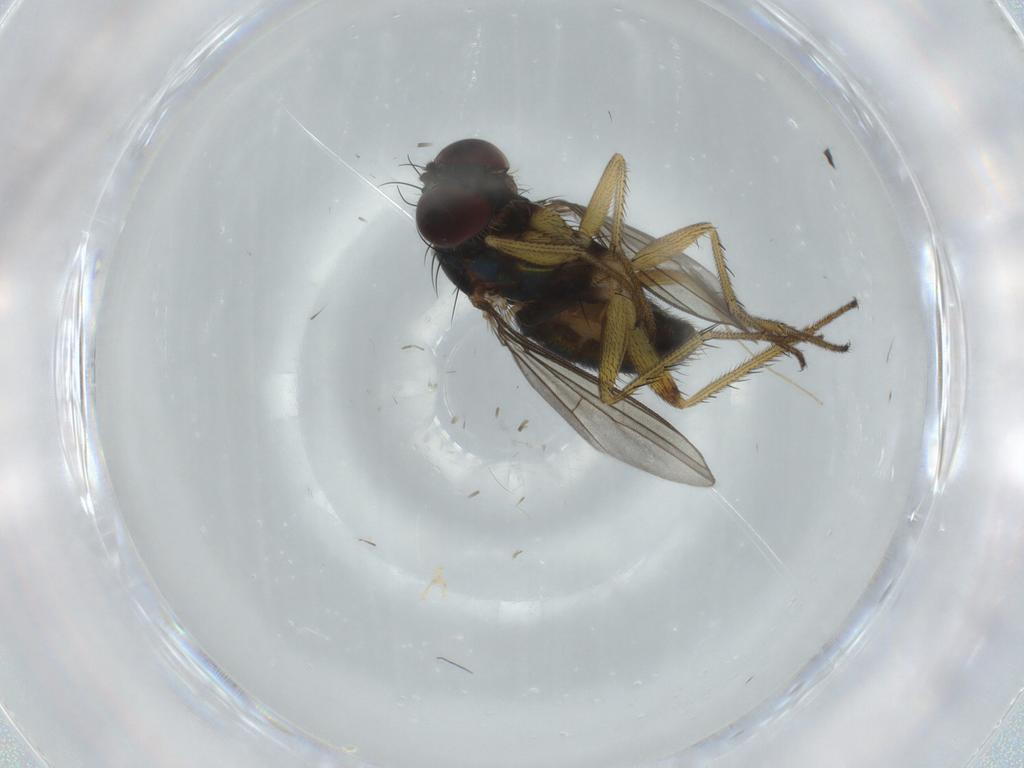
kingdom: Animalia
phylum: Arthropoda
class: Insecta
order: Diptera
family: Dolichopodidae
